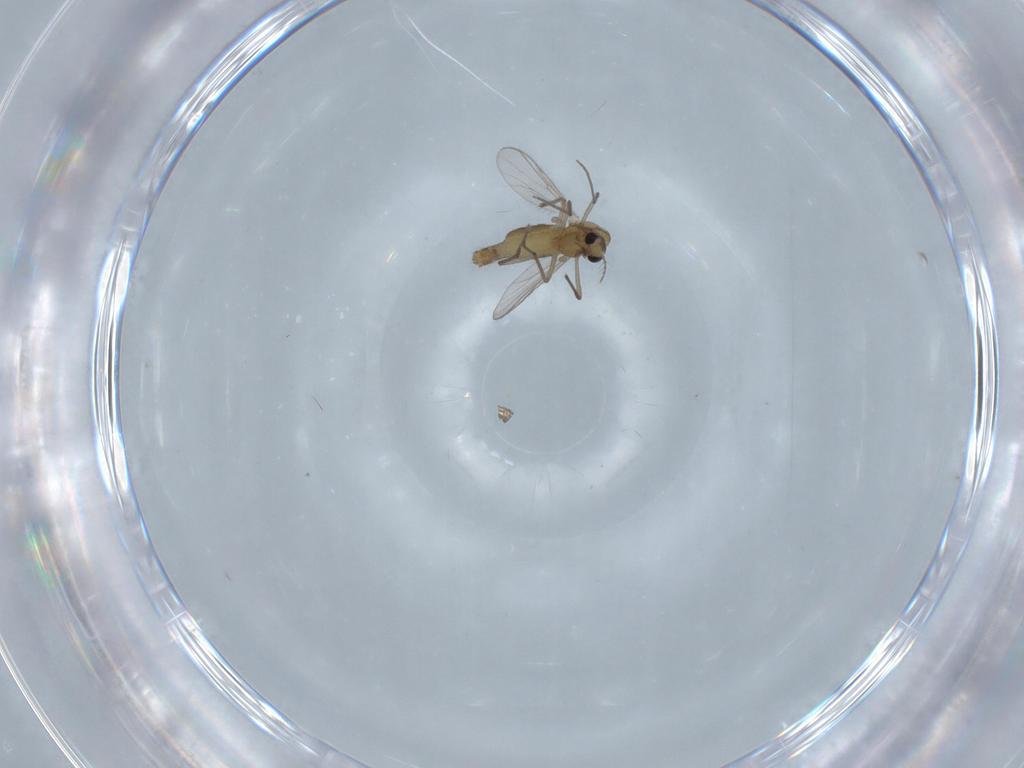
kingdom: Animalia
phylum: Arthropoda
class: Insecta
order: Diptera
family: Chironomidae
